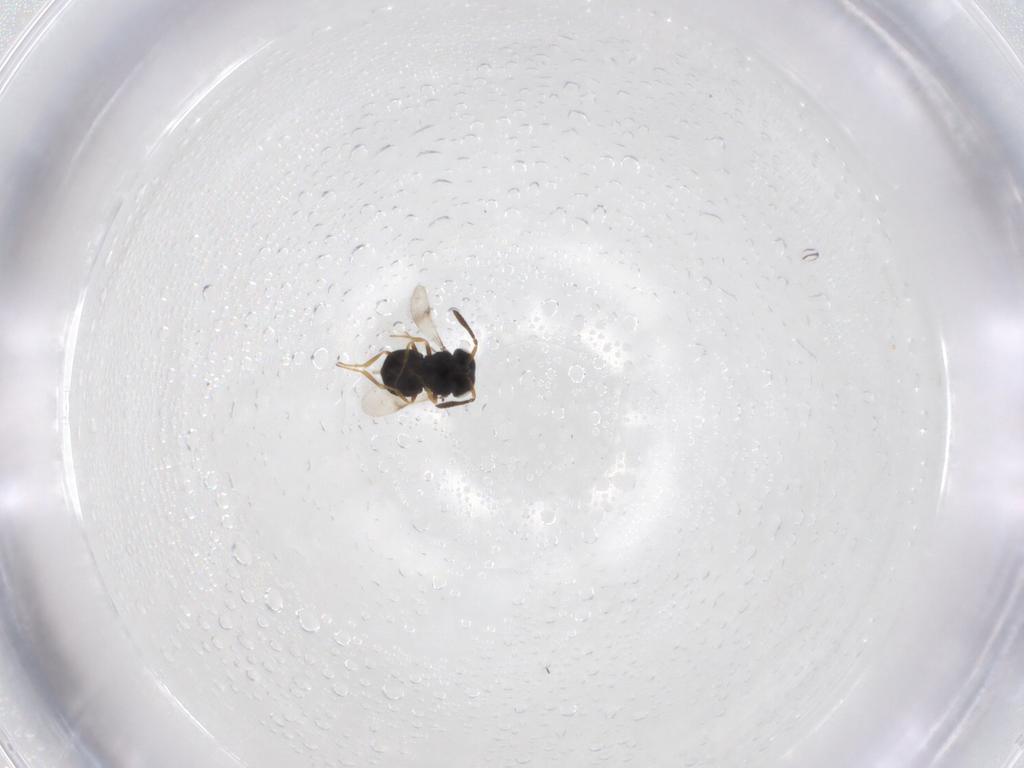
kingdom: Animalia
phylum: Arthropoda
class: Insecta
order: Hymenoptera
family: Scelionidae
